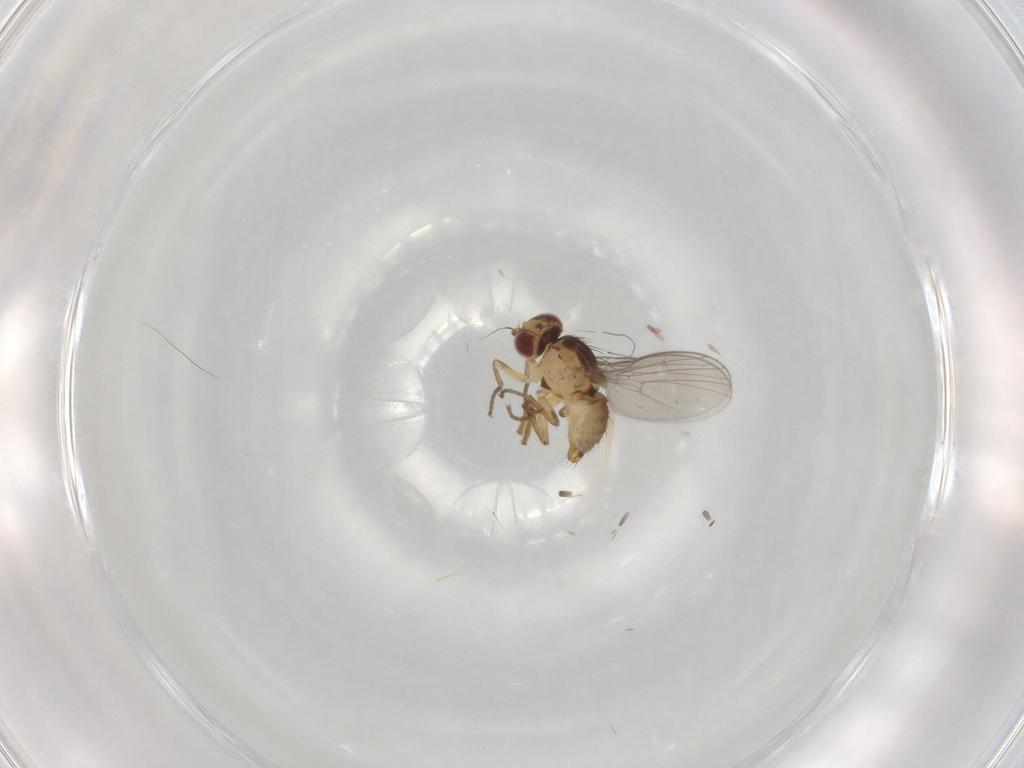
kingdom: Animalia
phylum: Arthropoda
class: Insecta
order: Diptera
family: Agromyzidae
